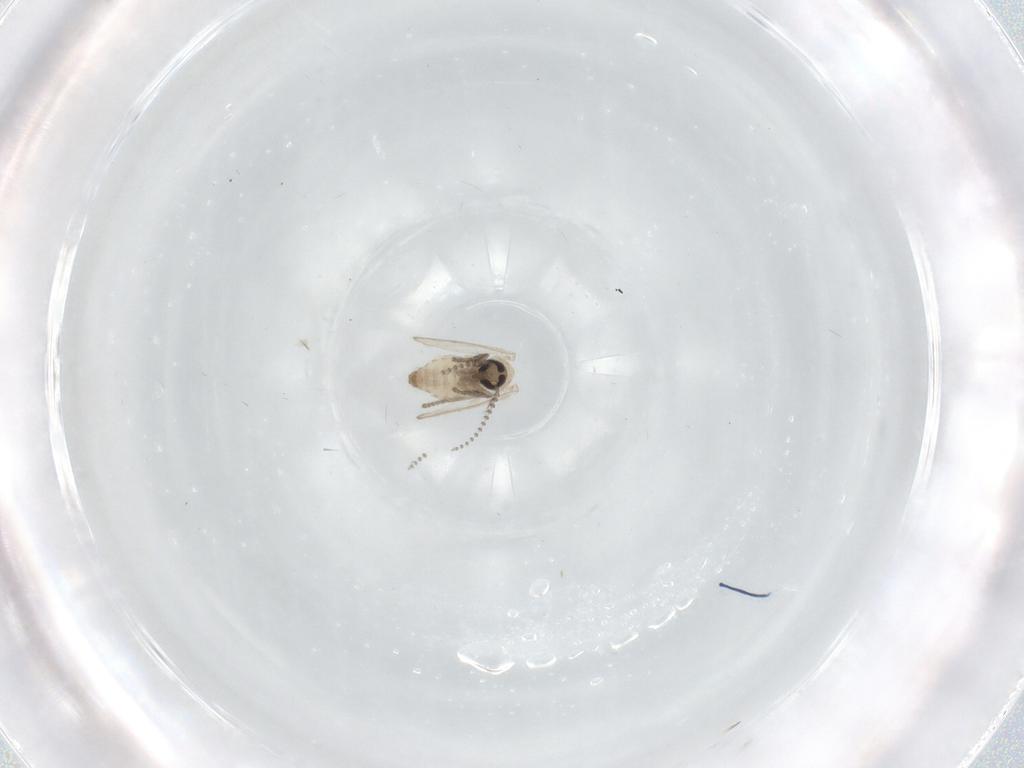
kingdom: Animalia
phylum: Arthropoda
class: Insecta
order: Diptera
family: Psychodidae
